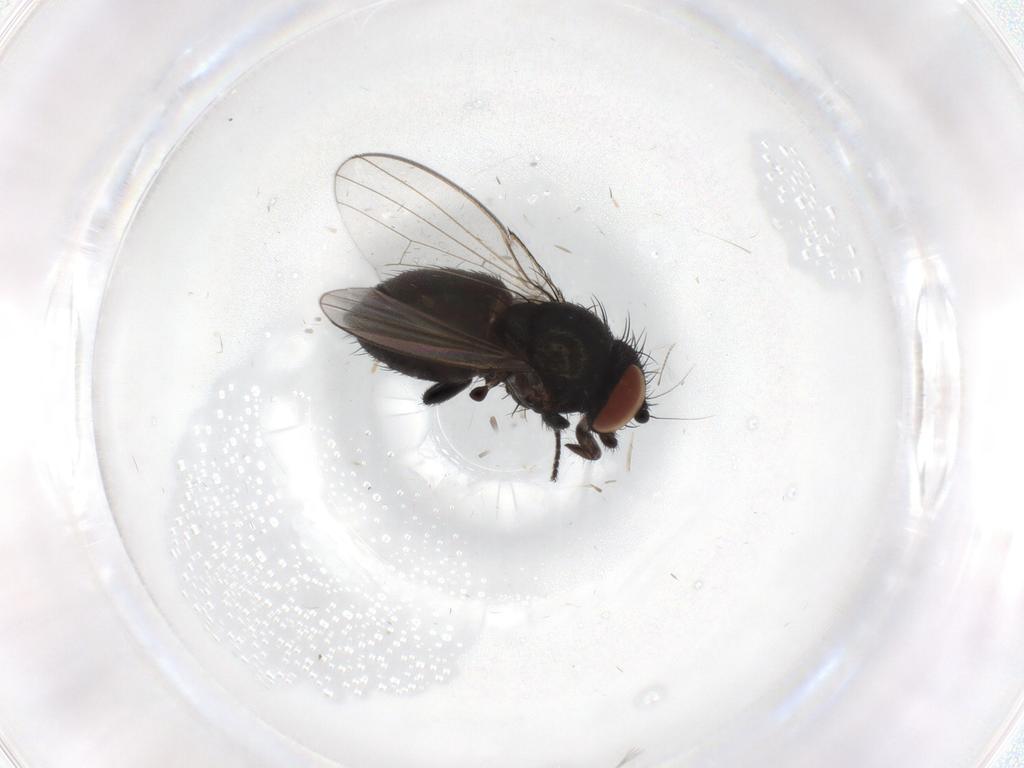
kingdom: Animalia
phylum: Arthropoda
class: Insecta
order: Diptera
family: Milichiidae
